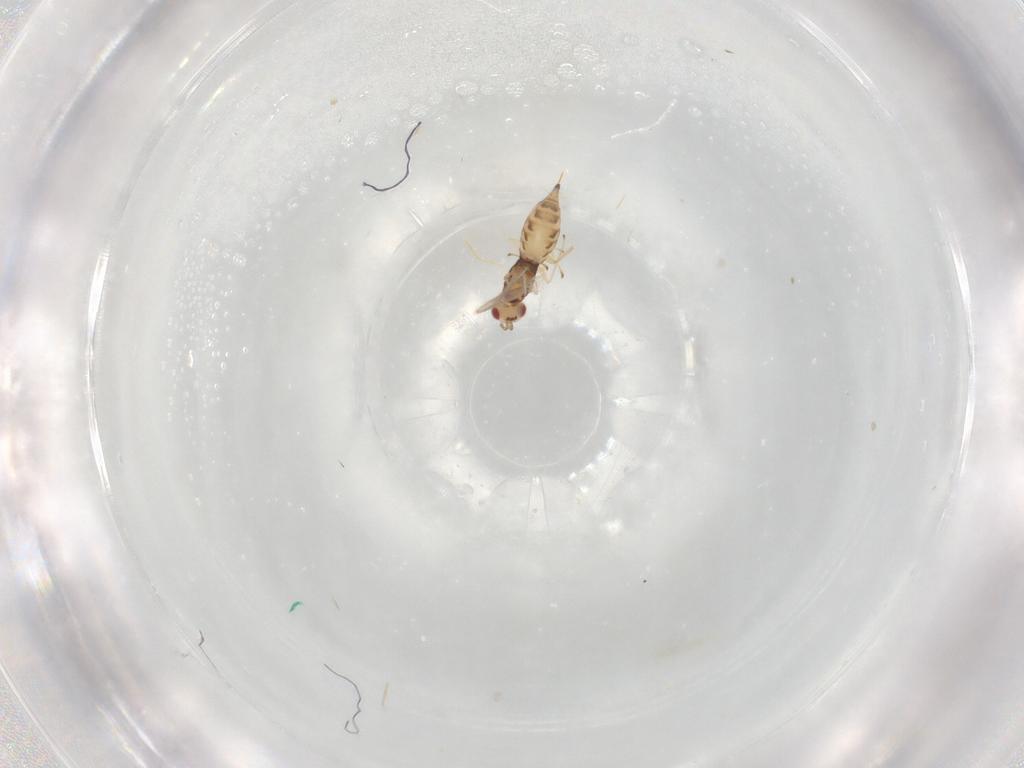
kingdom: Animalia
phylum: Arthropoda
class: Insecta
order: Hymenoptera
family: Eulophidae
